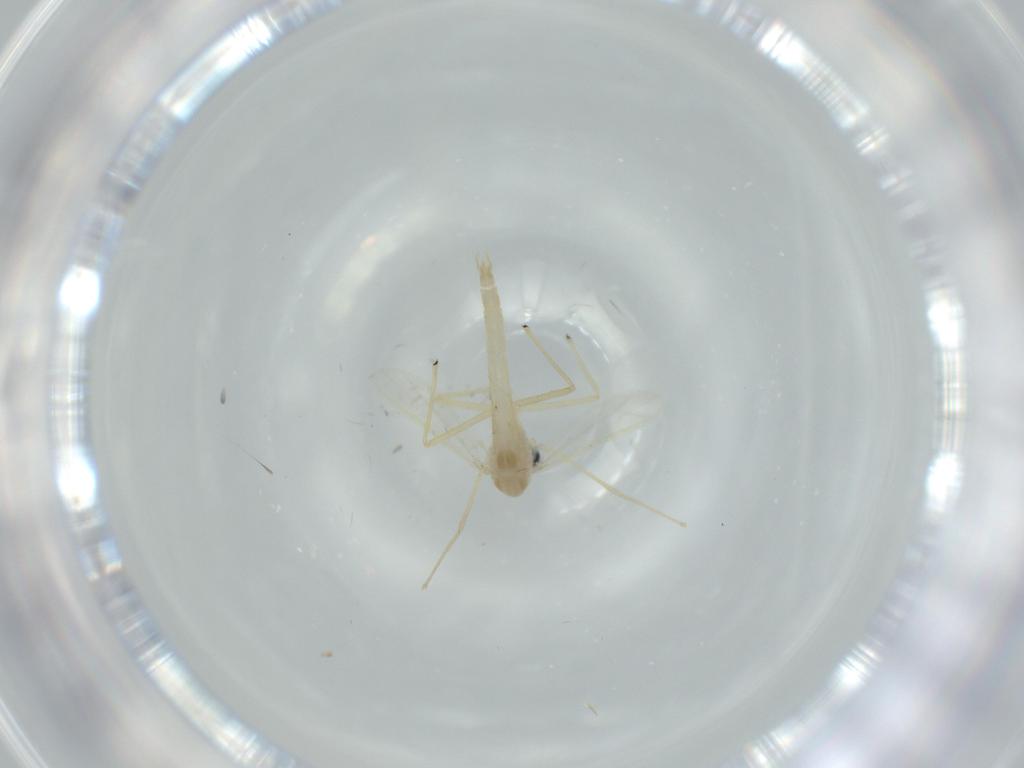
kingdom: Animalia
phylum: Arthropoda
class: Insecta
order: Diptera
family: Chironomidae
